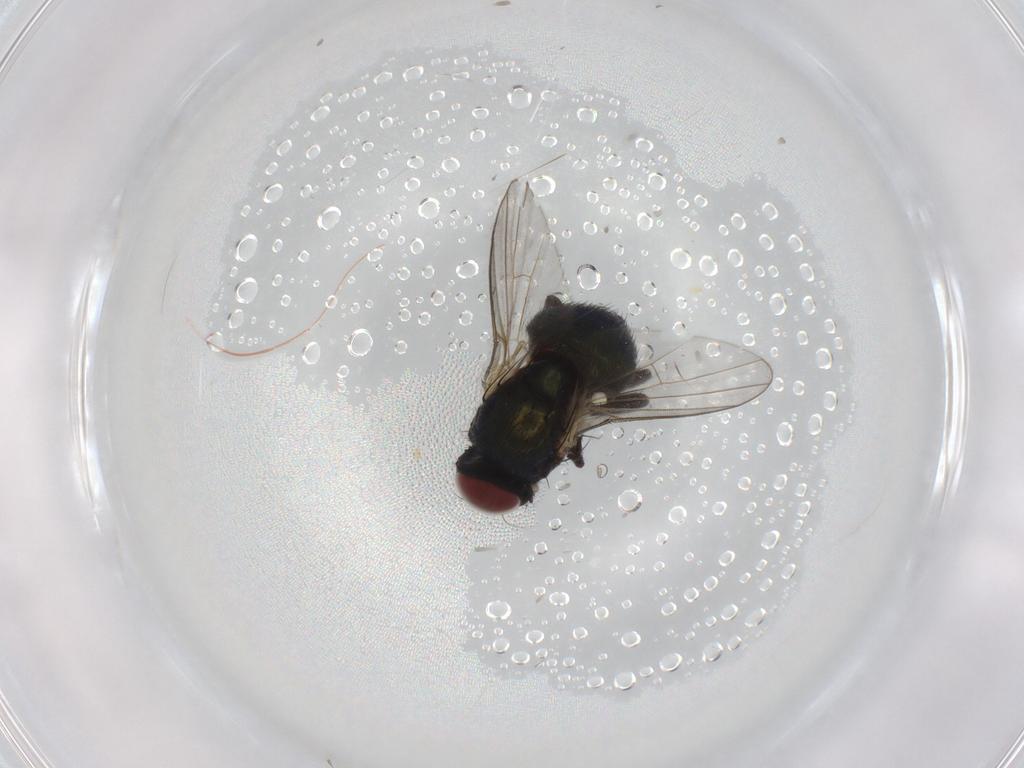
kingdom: Animalia
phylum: Arthropoda
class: Insecta
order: Diptera
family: Agromyzidae
